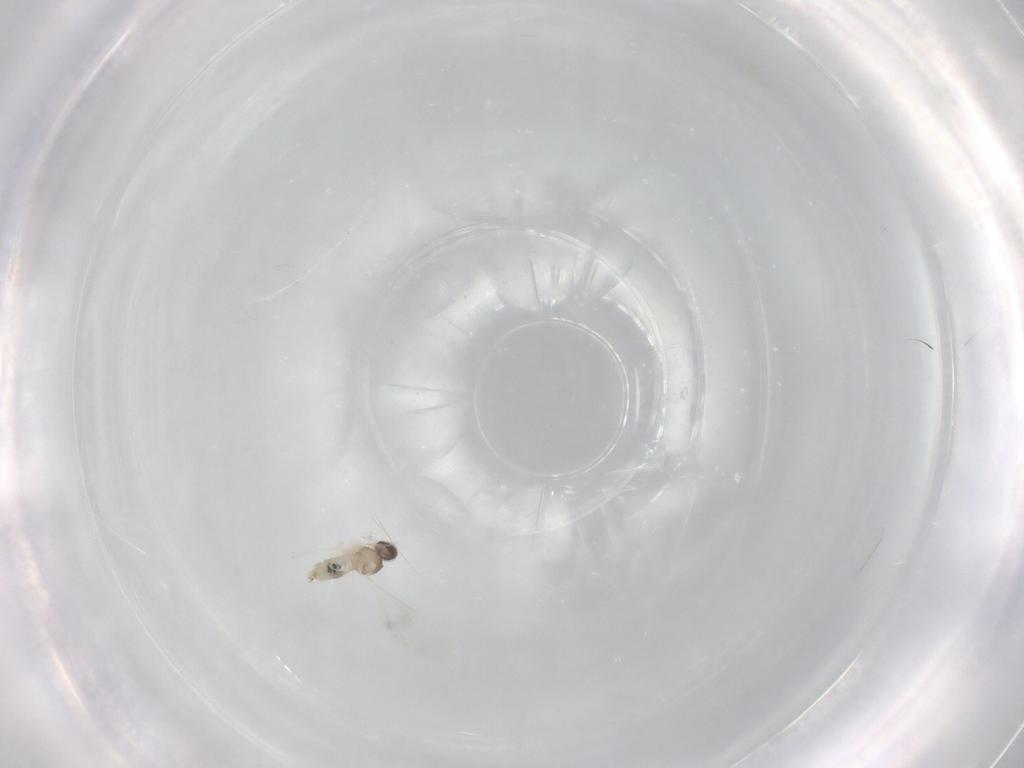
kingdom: Animalia
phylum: Arthropoda
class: Insecta
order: Diptera
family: Cecidomyiidae
